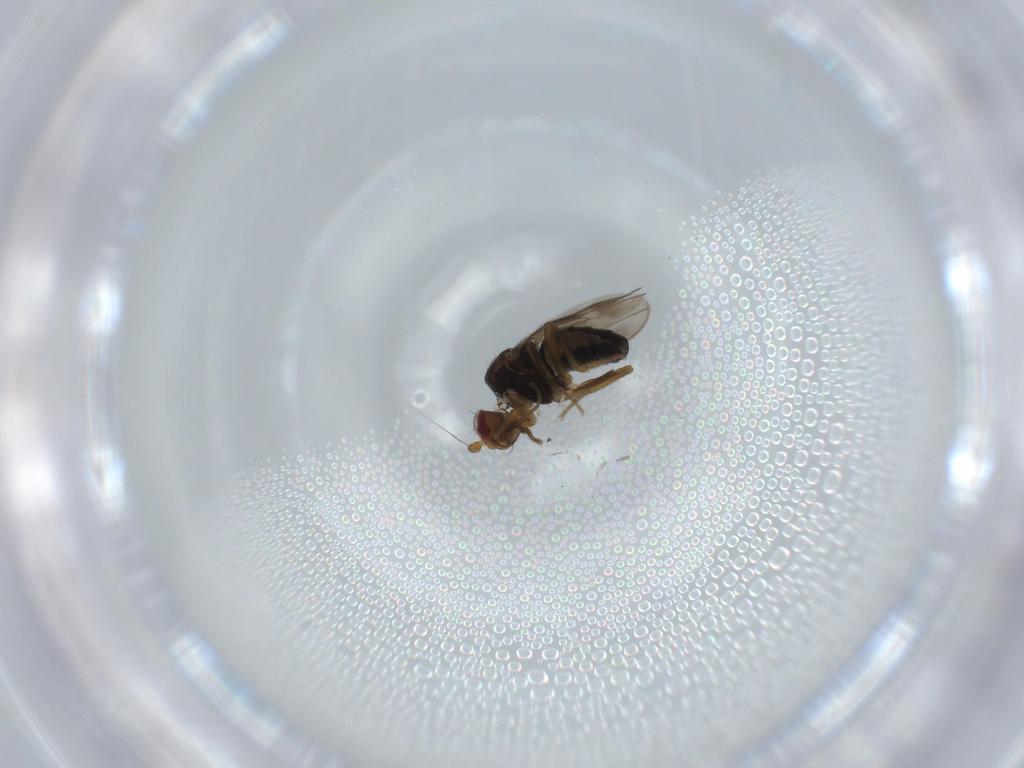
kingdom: Animalia
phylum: Arthropoda
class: Insecta
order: Diptera
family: Sphaeroceridae
